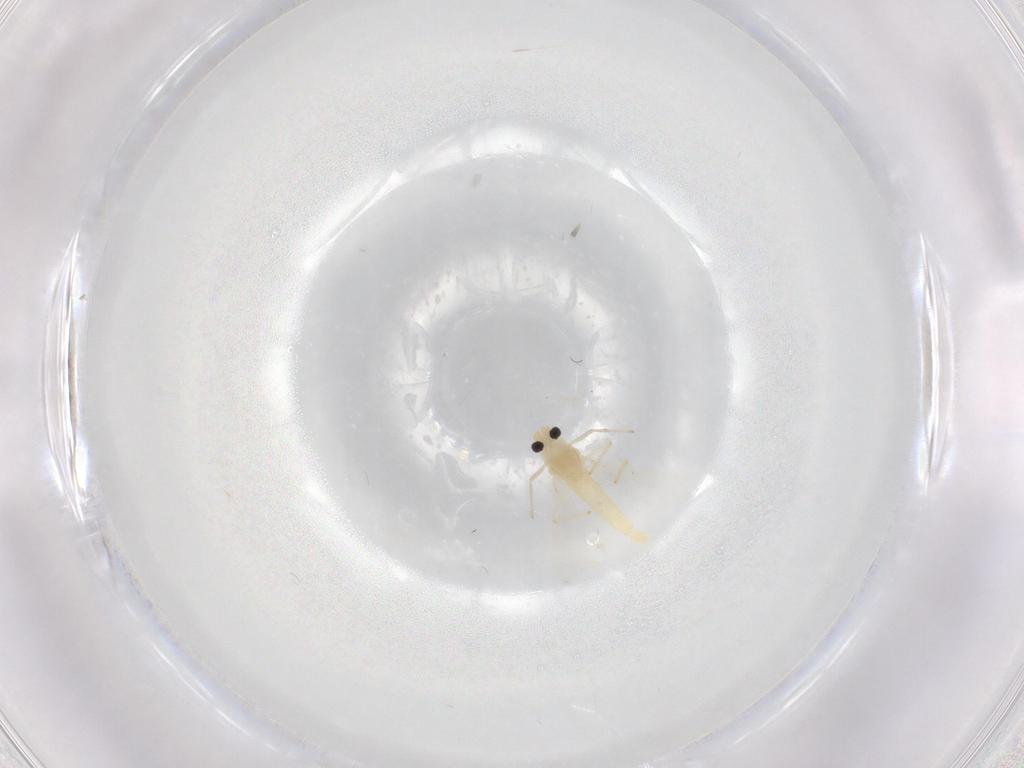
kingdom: Animalia
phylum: Arthropoda
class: Insecta
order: Diptera
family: Chironomidae
